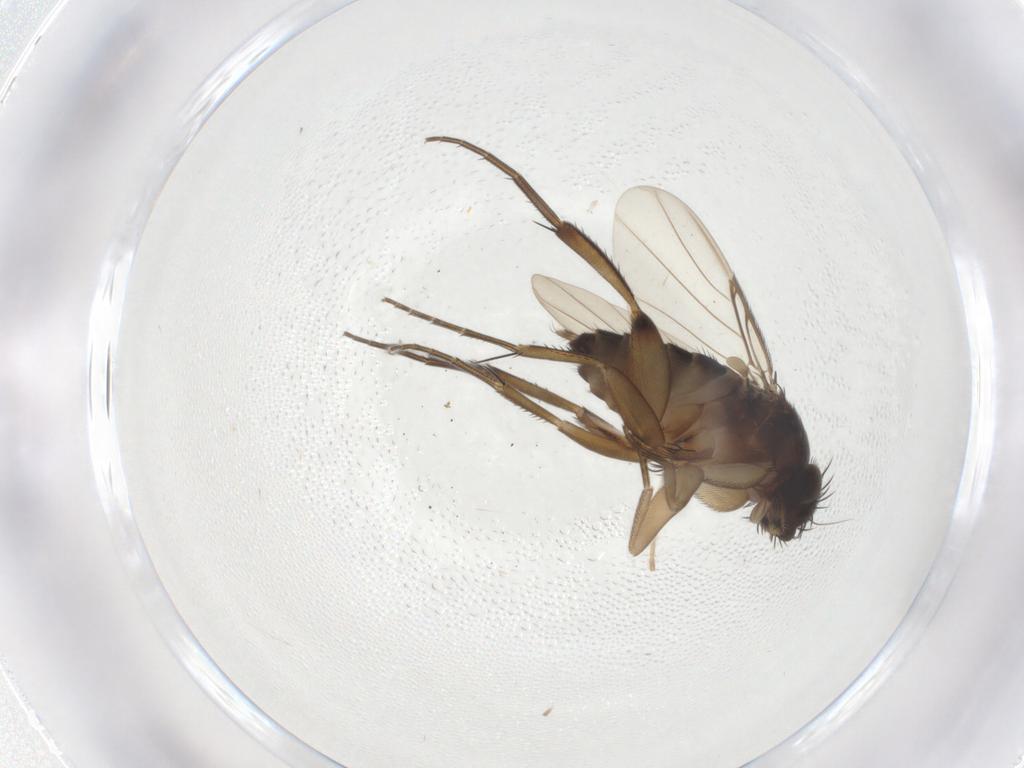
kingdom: Animalia
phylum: Arthropoda
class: Insecta
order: Diptera
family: Phoridae
